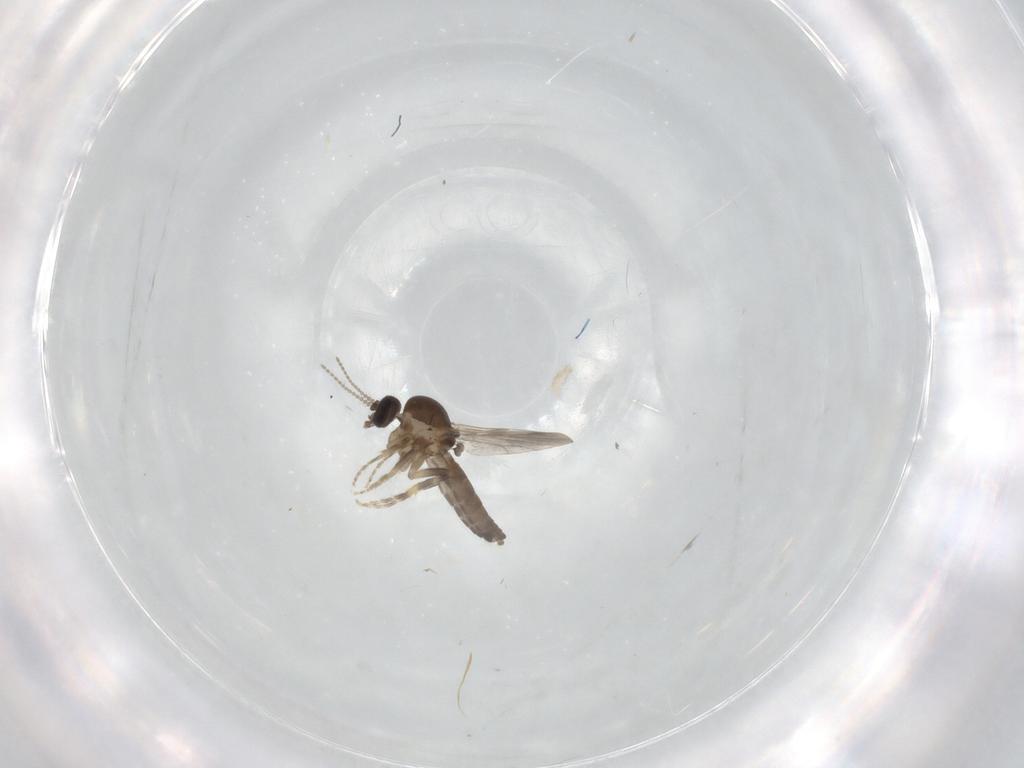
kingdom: Animalia
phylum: Arthropoda
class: Insecta
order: Diptera
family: Ceratopogonidae
